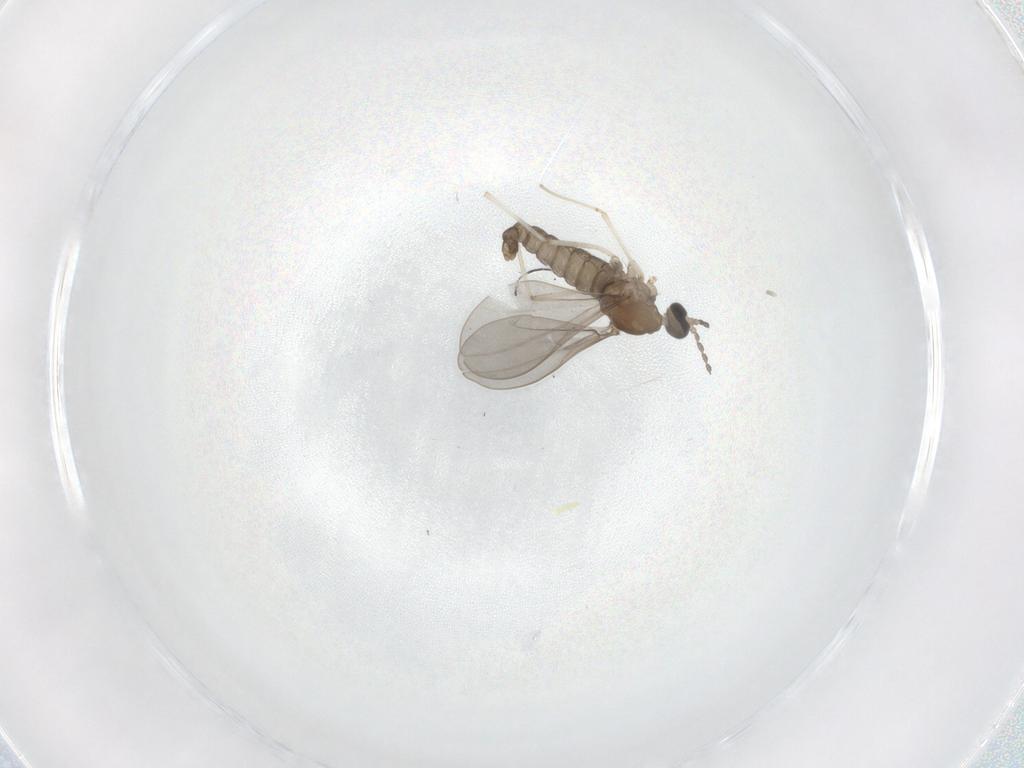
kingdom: Animalia
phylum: Arthropoda
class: Insecta
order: Diptera
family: Cecidomyiidae
